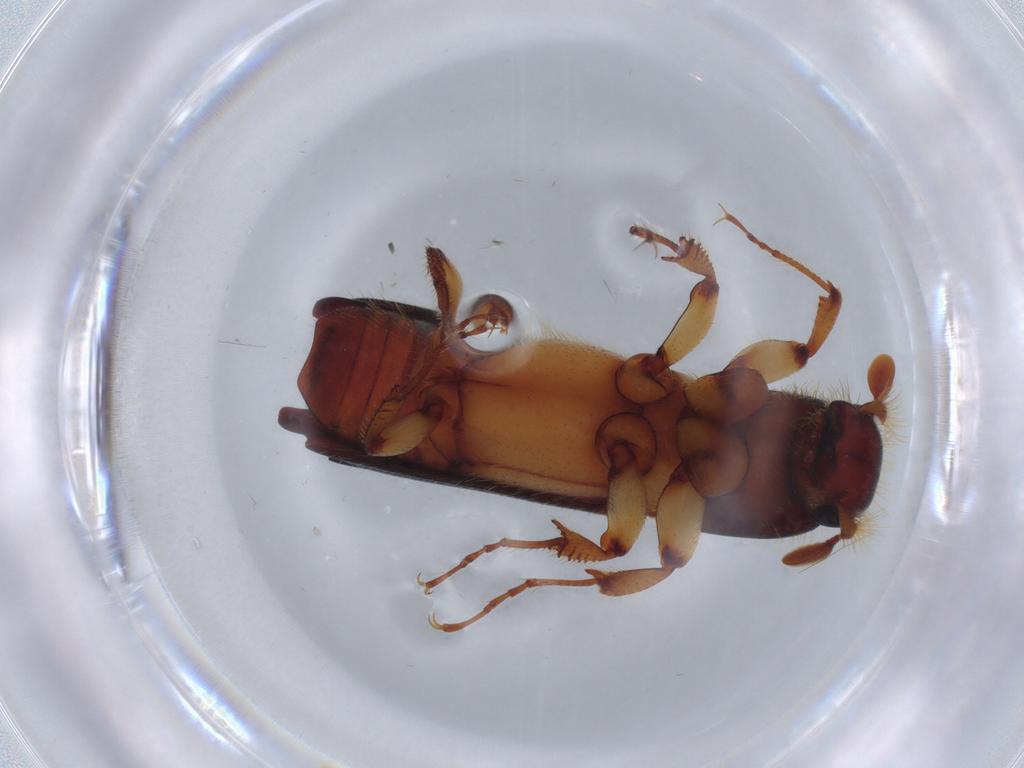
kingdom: Animalia
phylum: Arthropoda
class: Insecta
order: Coleoptera
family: Curculionidae
